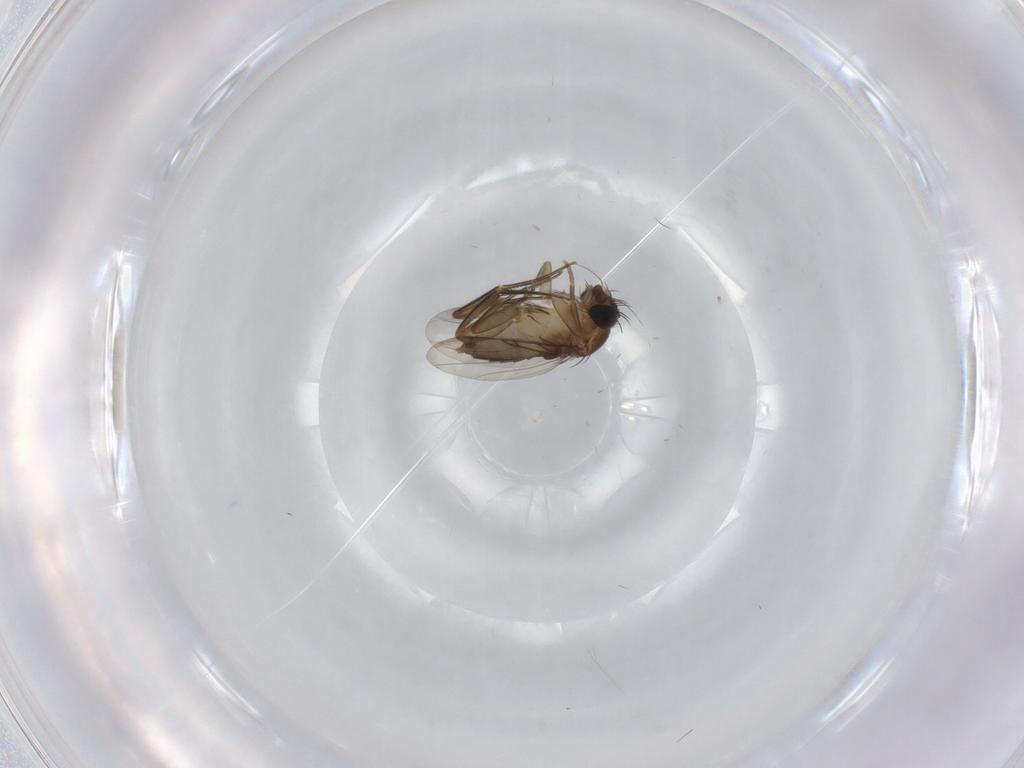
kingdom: Animalia
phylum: Arthropoda
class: Insecta
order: Diptera
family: Phoridae
